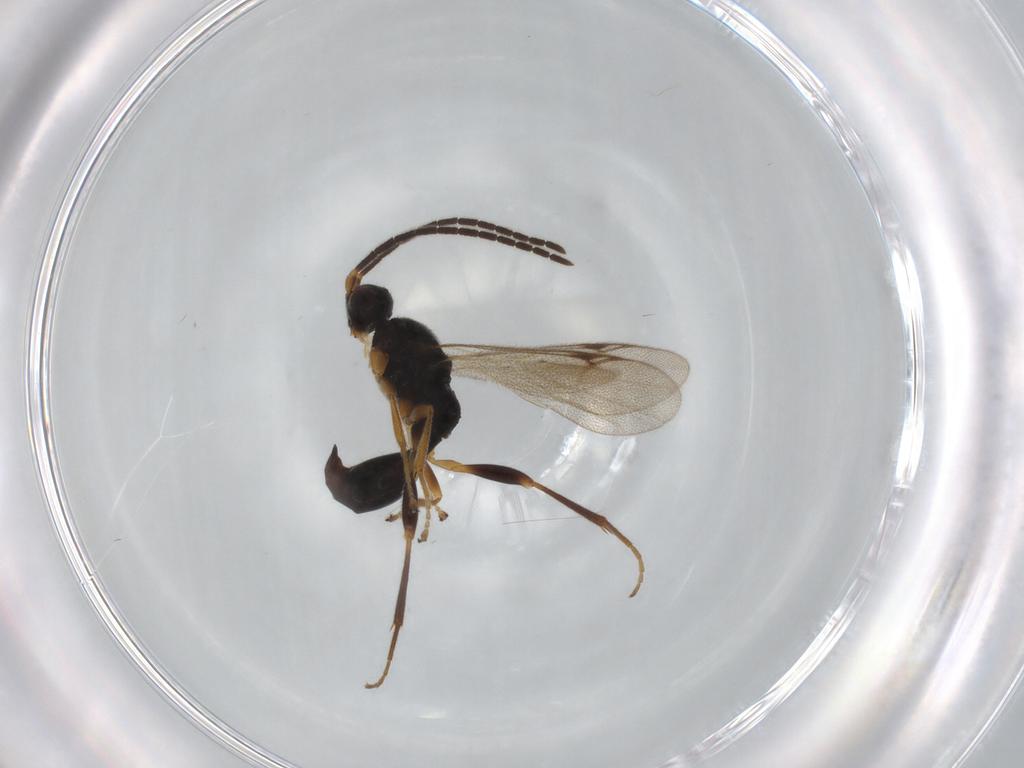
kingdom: Animalia
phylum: Arthropoda
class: Insecta
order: Hymenoptera
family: Proctotrupidae
